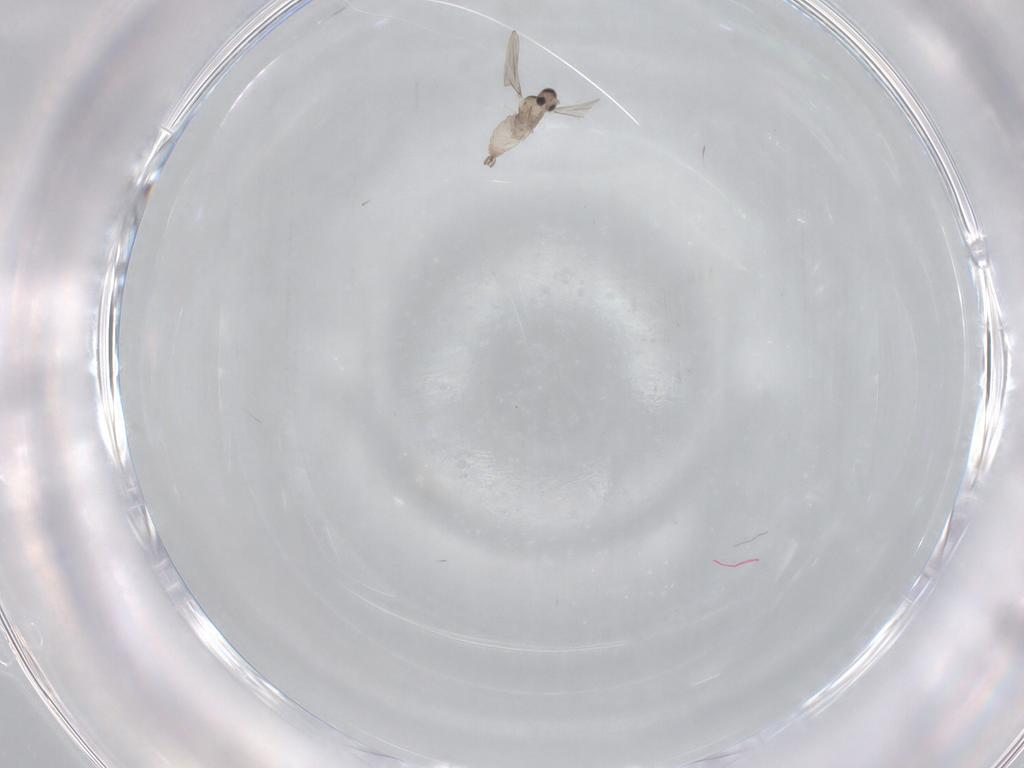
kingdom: Animalia
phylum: Arthropoda
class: Insecta
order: Diptera
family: Cecidomyiidae
